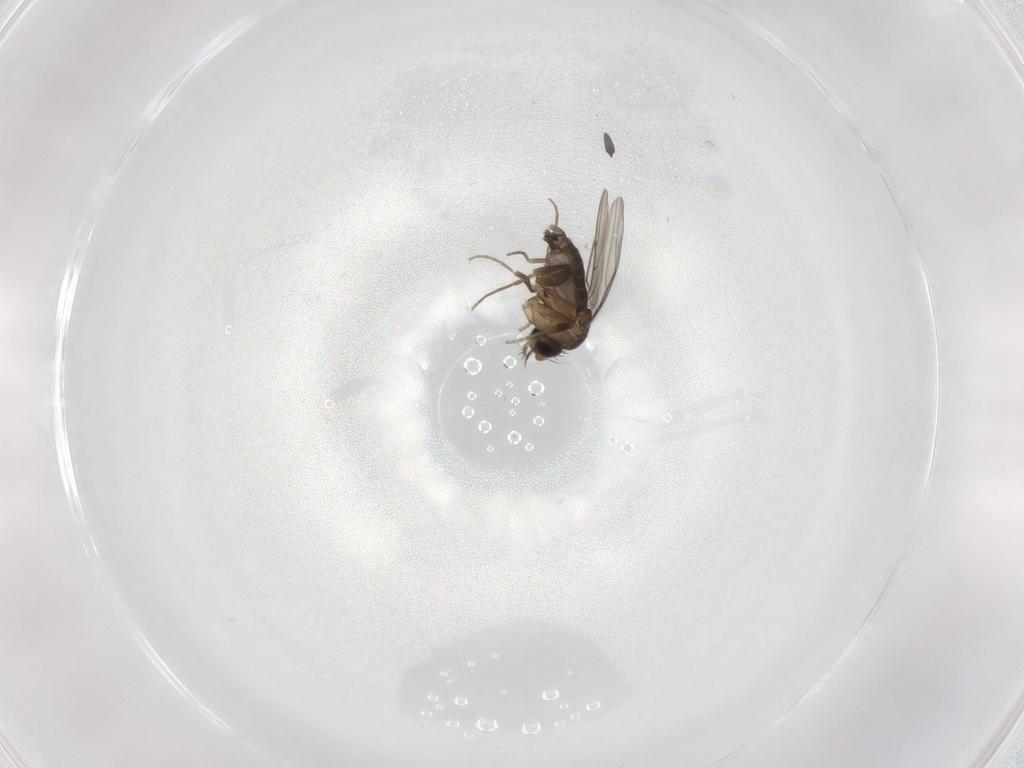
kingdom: Animalia
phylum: Arthropoda
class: Insecta
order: Diptera
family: Phoridae
